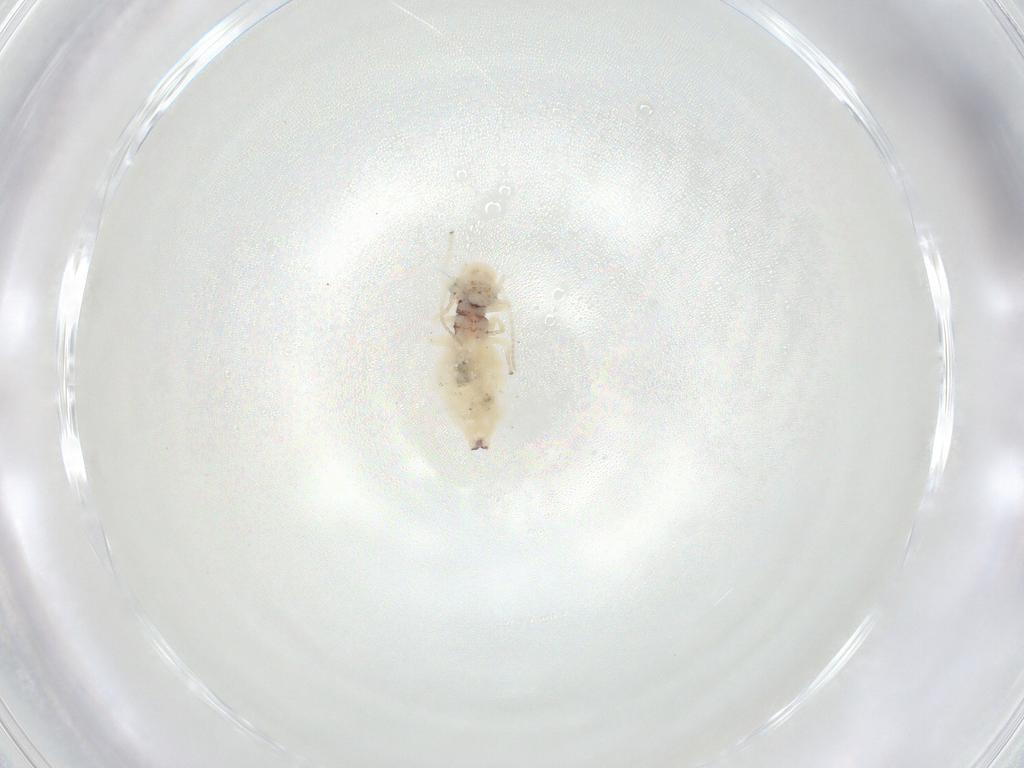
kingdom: Animalia
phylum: Arthropoda
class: Insecta
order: Psocodea
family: Amphipsocidae
